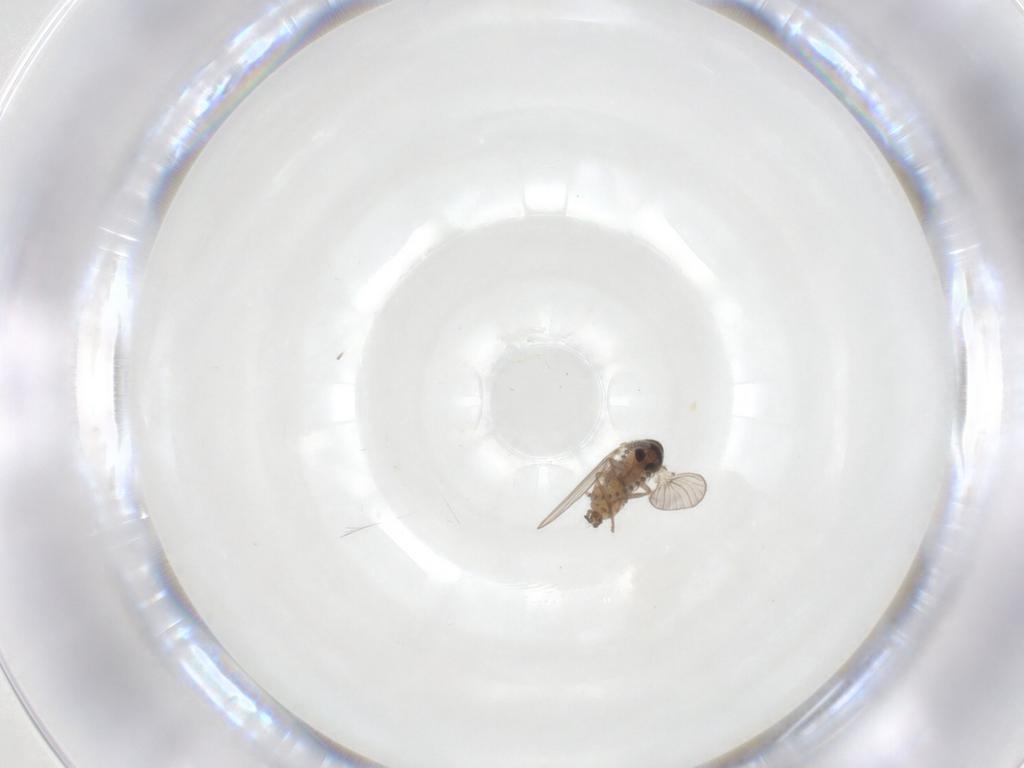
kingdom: Animalia
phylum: Arthropoda
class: Insecta
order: Diptera
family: Psychodidae
